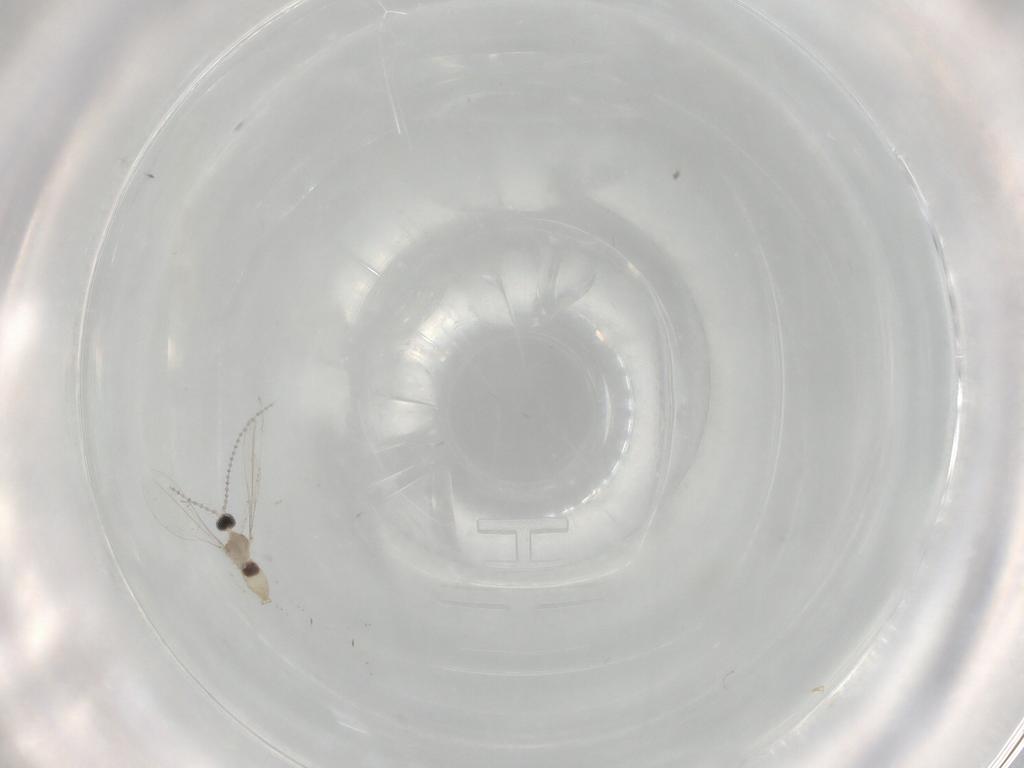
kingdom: Animalia
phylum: Arthropoda
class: Insecta
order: Diptera
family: Cecidomyiidae
